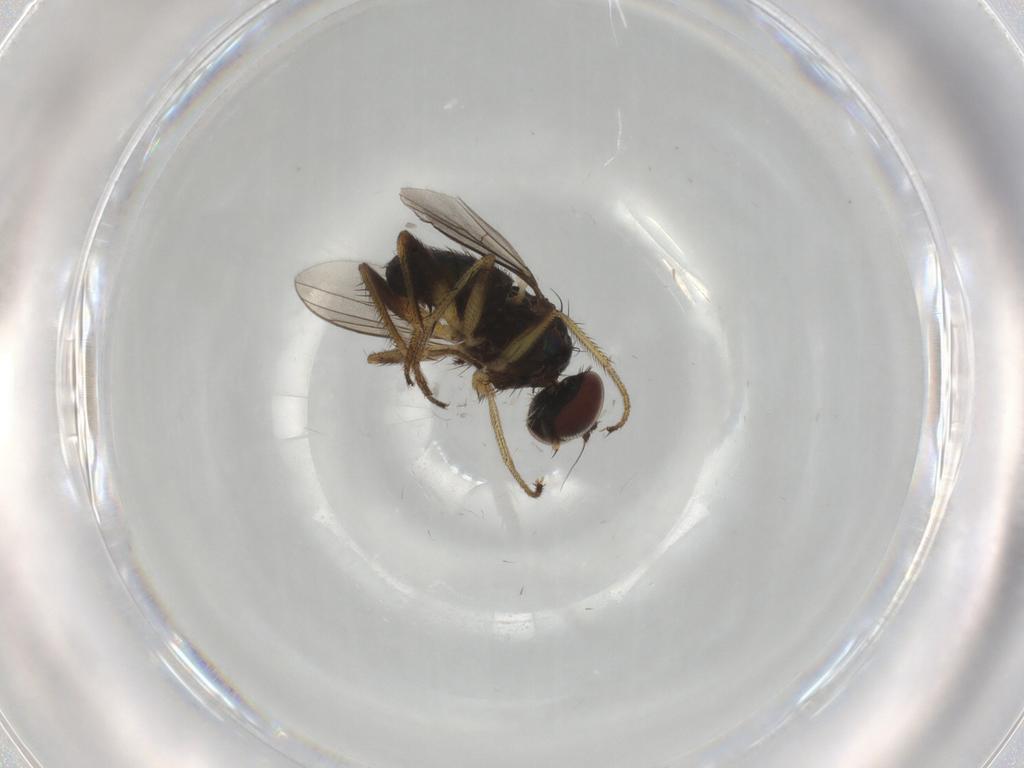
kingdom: Animalia
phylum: Arthropoda
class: Insecta
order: Diptera
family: Dolichopodidae
